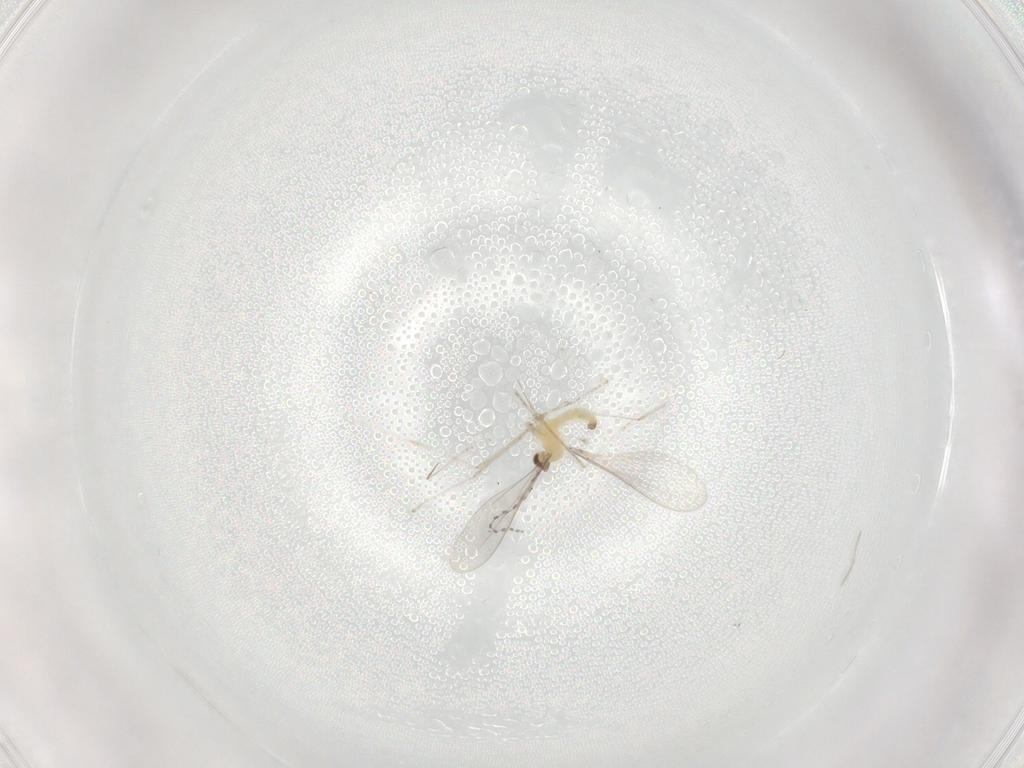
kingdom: Animalia
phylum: Arthropoda
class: Insecta
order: Diptera
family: Cecidomyiidae
